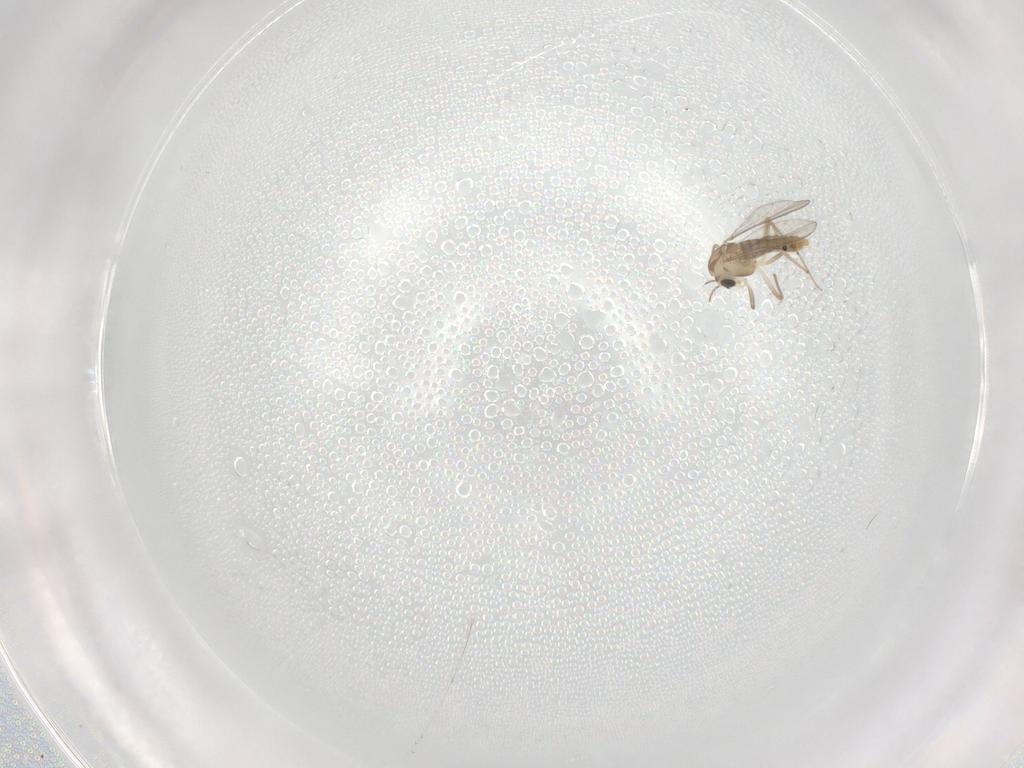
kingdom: Animalia
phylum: Arthropoda
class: Insecta
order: Diptera
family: Chironomidae
